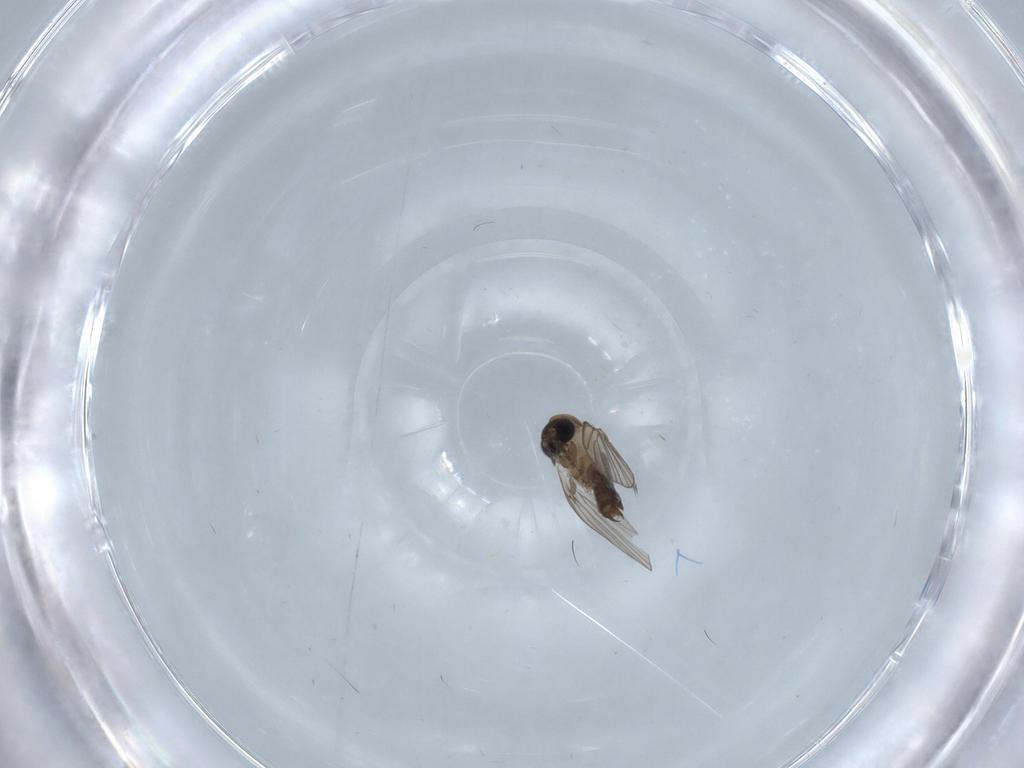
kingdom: Animalia
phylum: Arthropoda
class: Insecta
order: Diptera
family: Psychodidae
